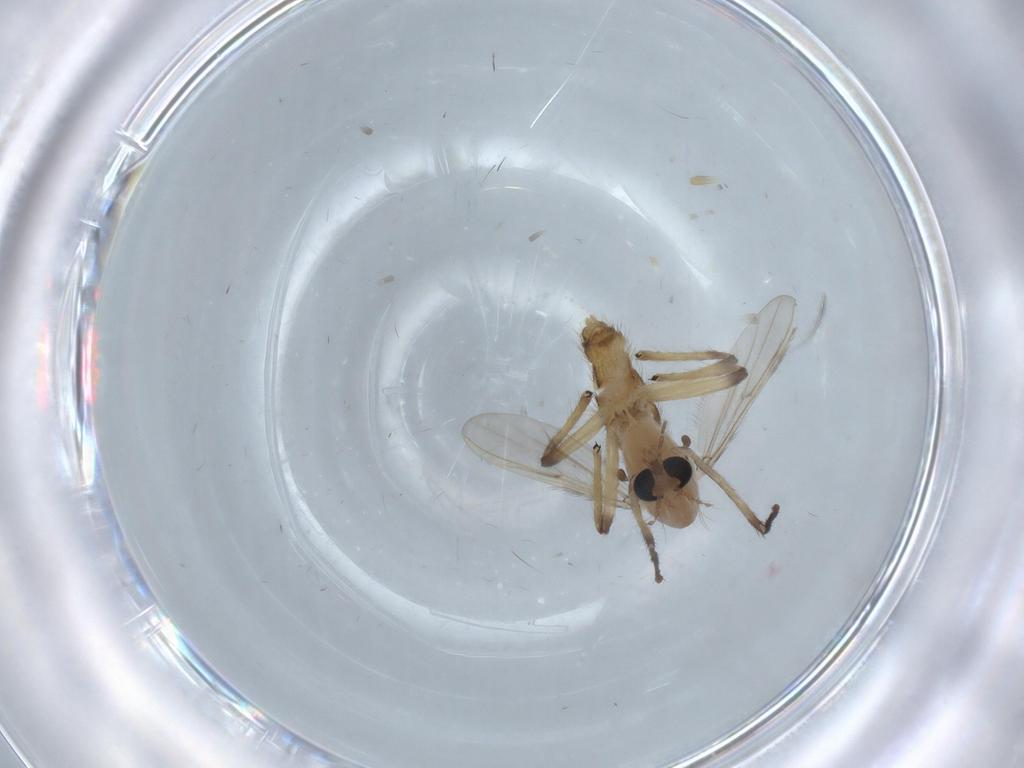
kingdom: Animalia
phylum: Arthropoda
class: Insecta
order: Diptera
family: Chironomidae
